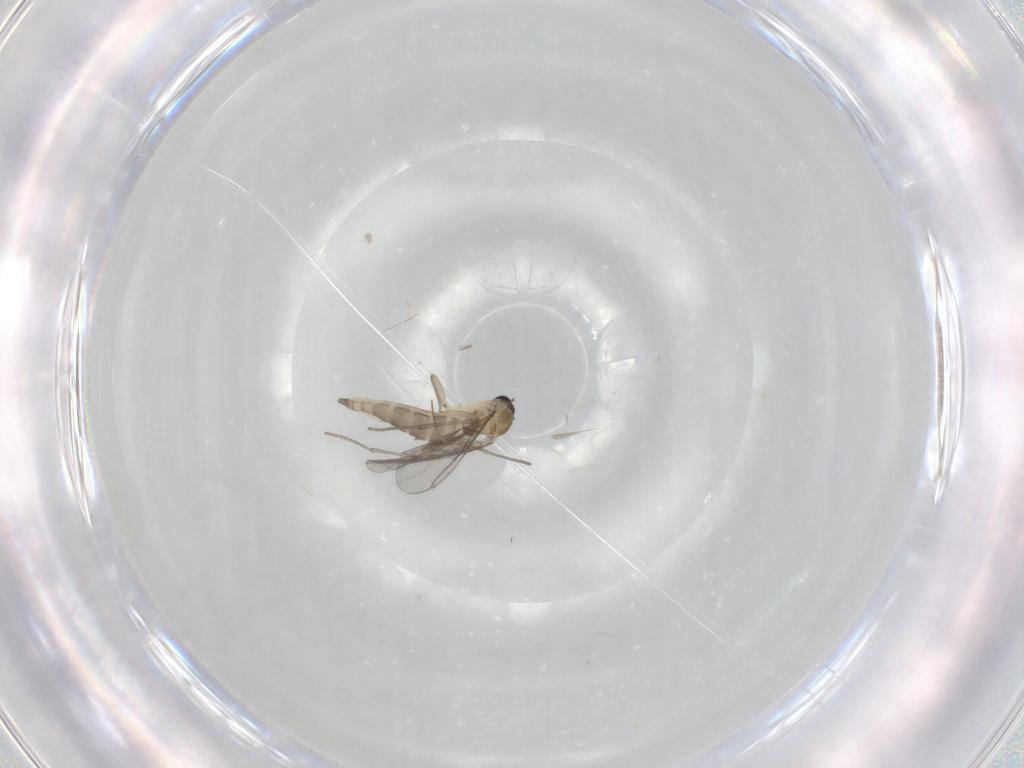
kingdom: Animalia
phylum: Arthropoda
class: Insecta
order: Diptera
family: Sciaridae
